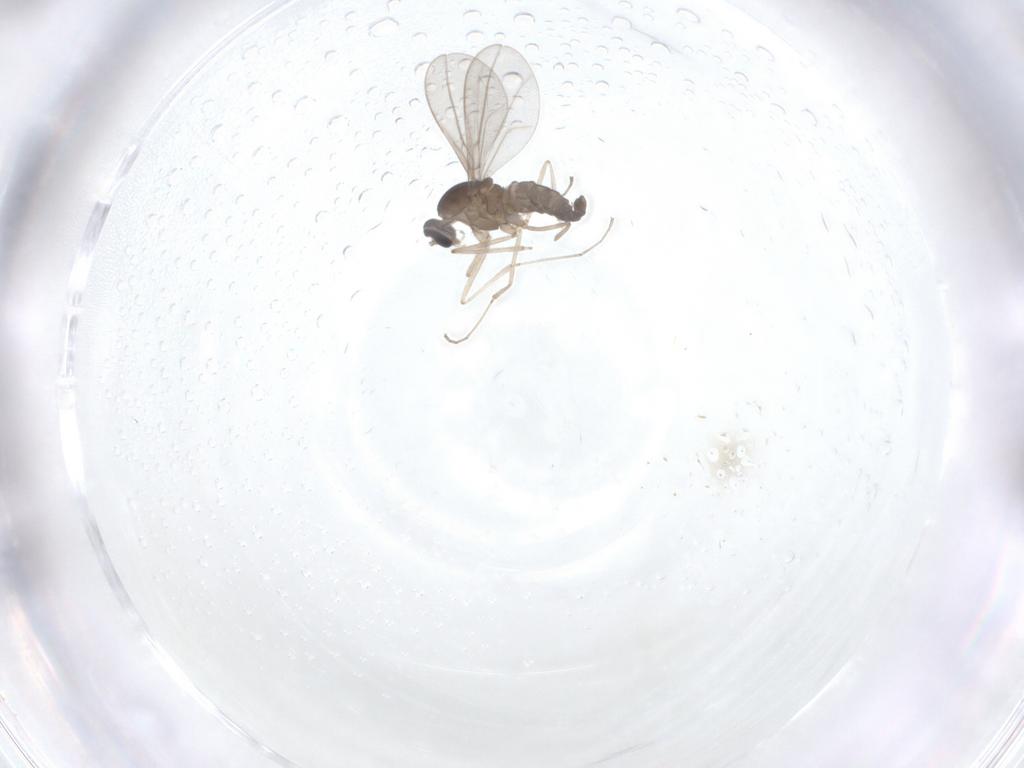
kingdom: Animalia
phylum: Arthropoda
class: Insecta
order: Diptera
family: Cecidomyiidae
